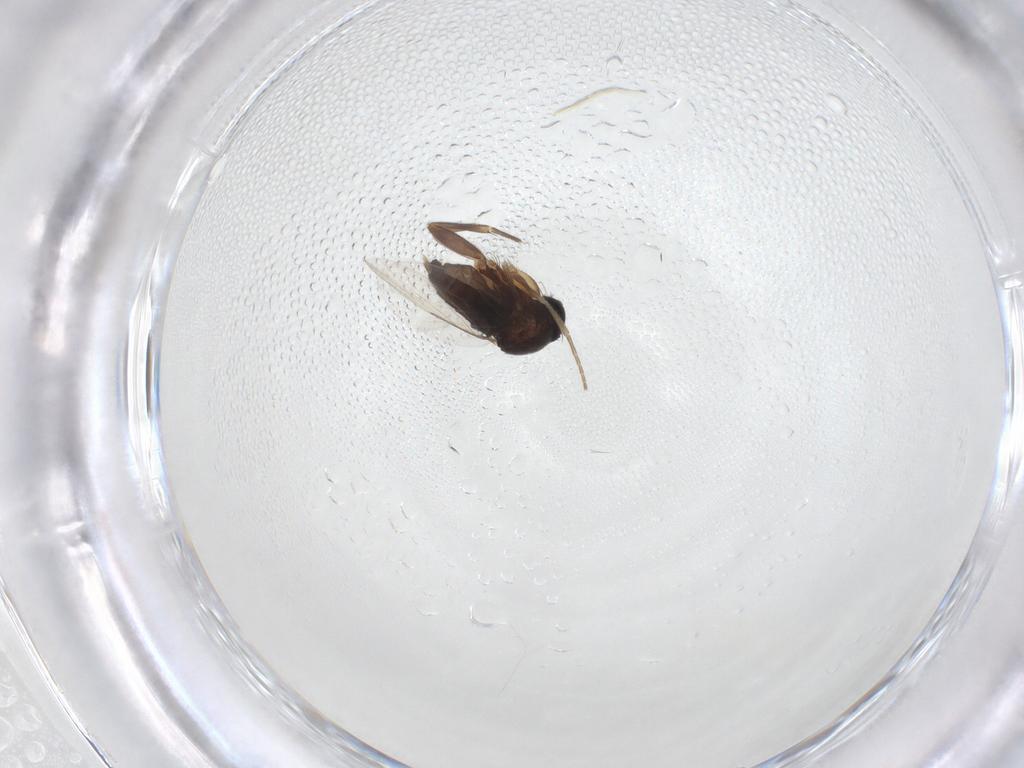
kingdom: Animalia
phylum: Arthropoda
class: Insecta
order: Diptera
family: Phoridae
